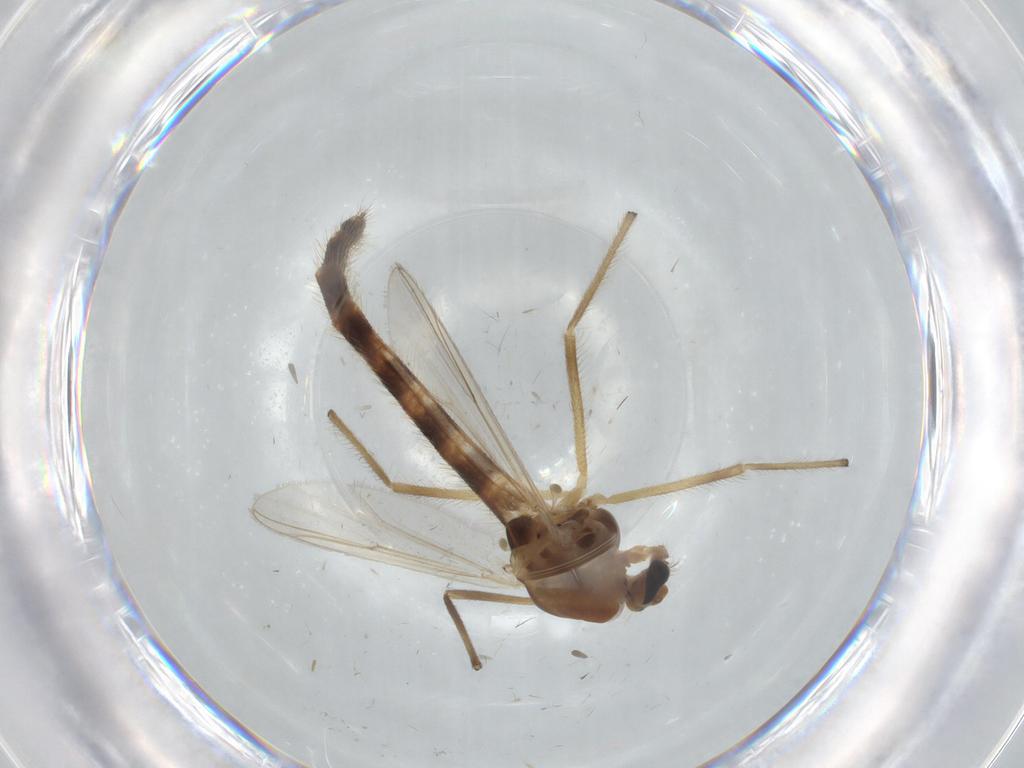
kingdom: Animalia
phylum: Arthropoda
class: Insecta
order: Diptera
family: Chironomidae
